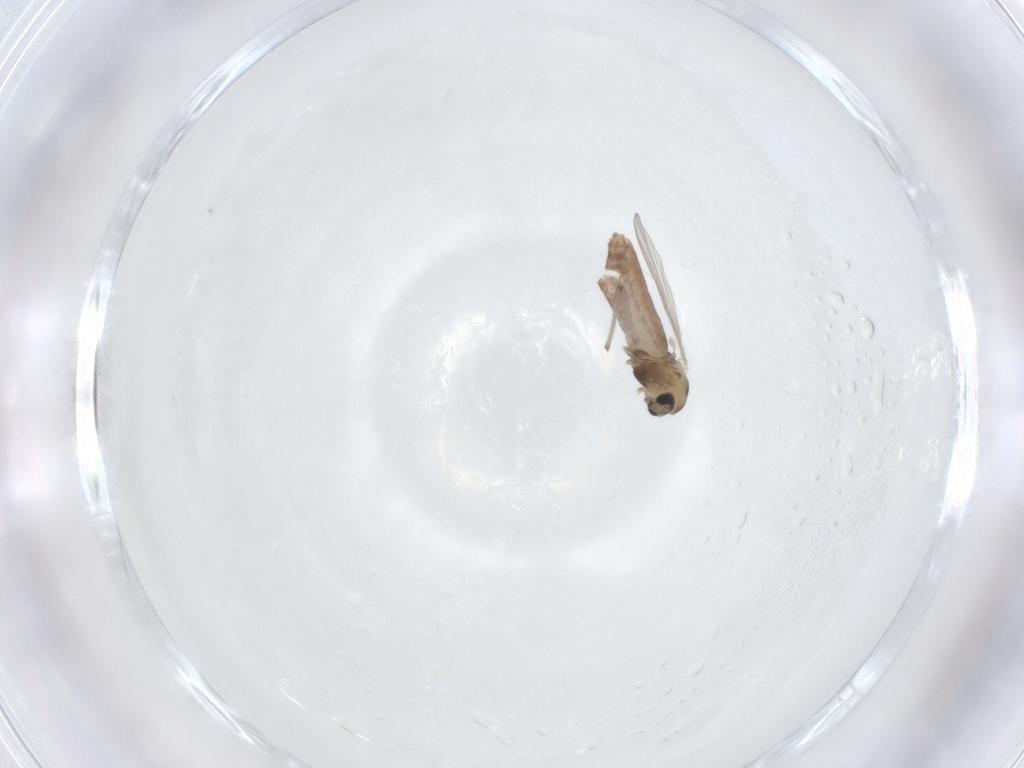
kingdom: Animalia
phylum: Arthropoda
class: Insecta
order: Diptera
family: Chironomidae
